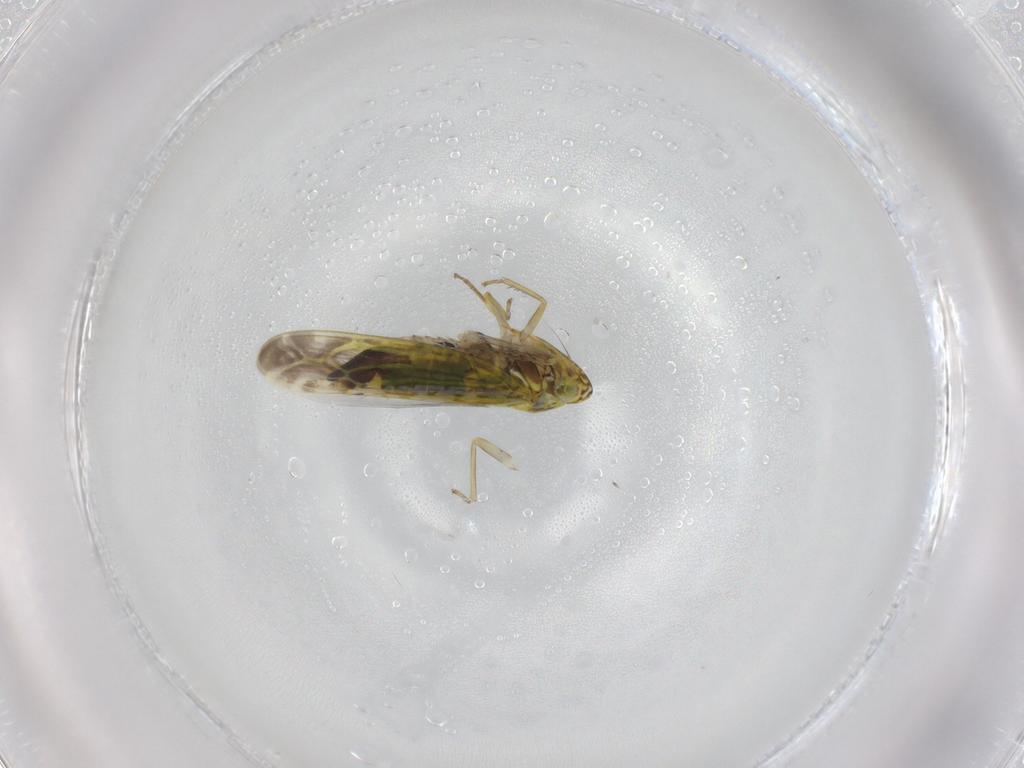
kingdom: Animalia
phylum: Arthropoda
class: Insecta
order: Hemiptera
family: Cicadellidae
